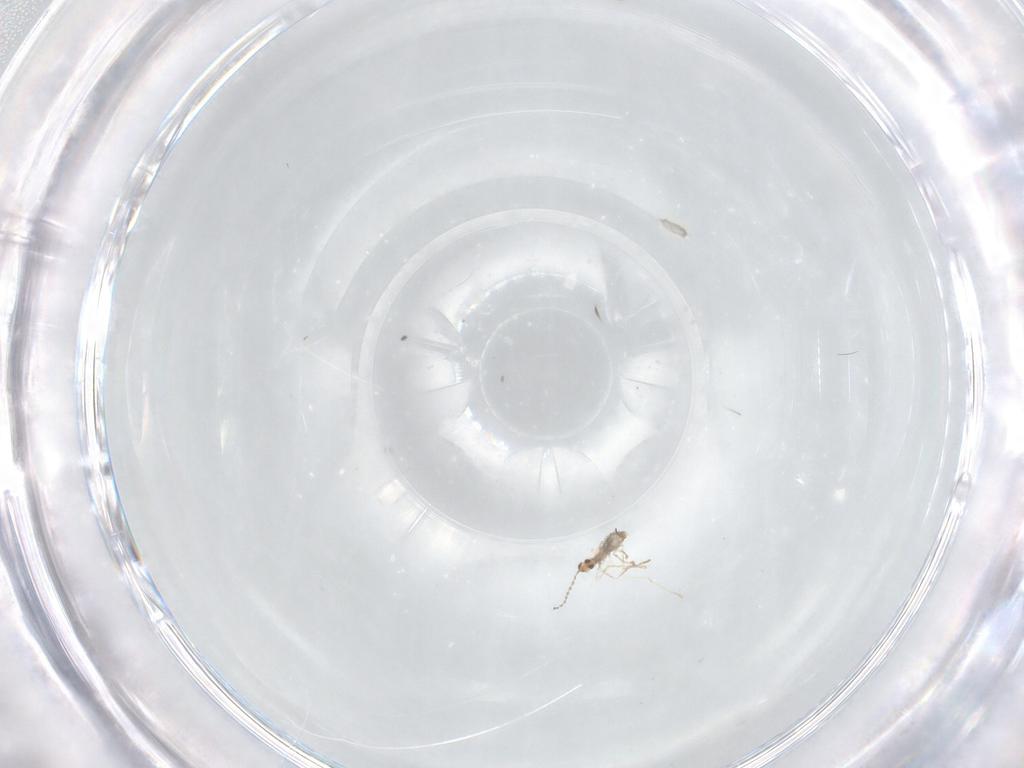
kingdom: Animalia
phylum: Arthropoda
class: Insecta
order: Diptera
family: Cecidomyiidae
